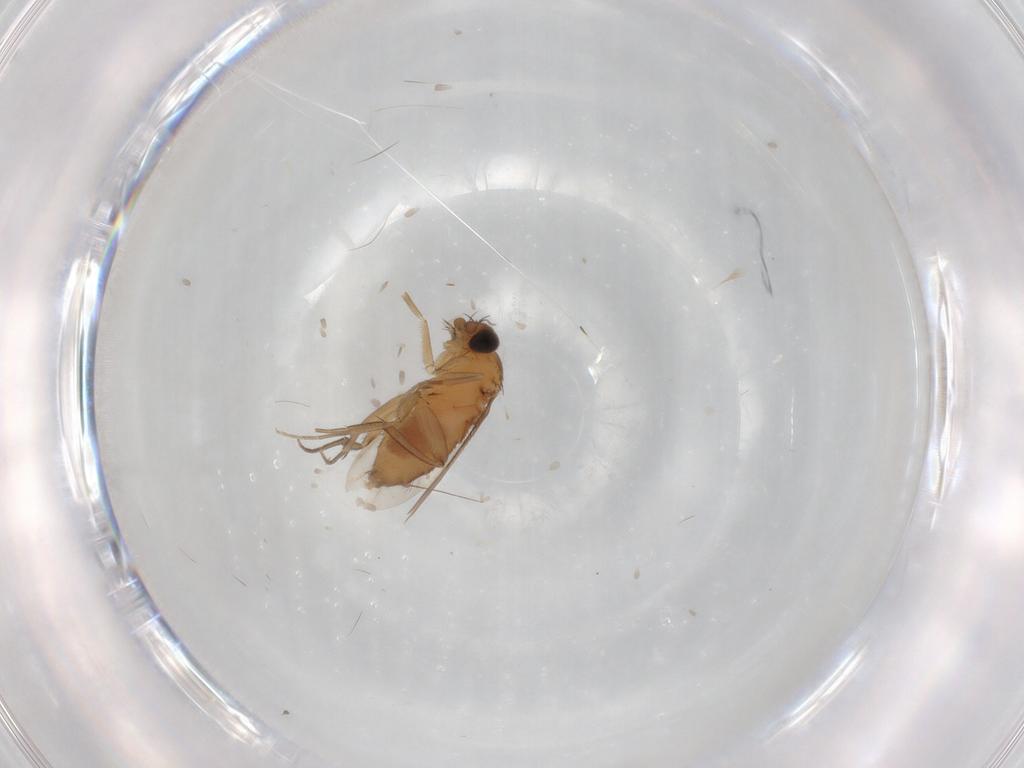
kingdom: Animalia
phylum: Arthropoda
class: Insecta
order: Diptera
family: Phoridae
